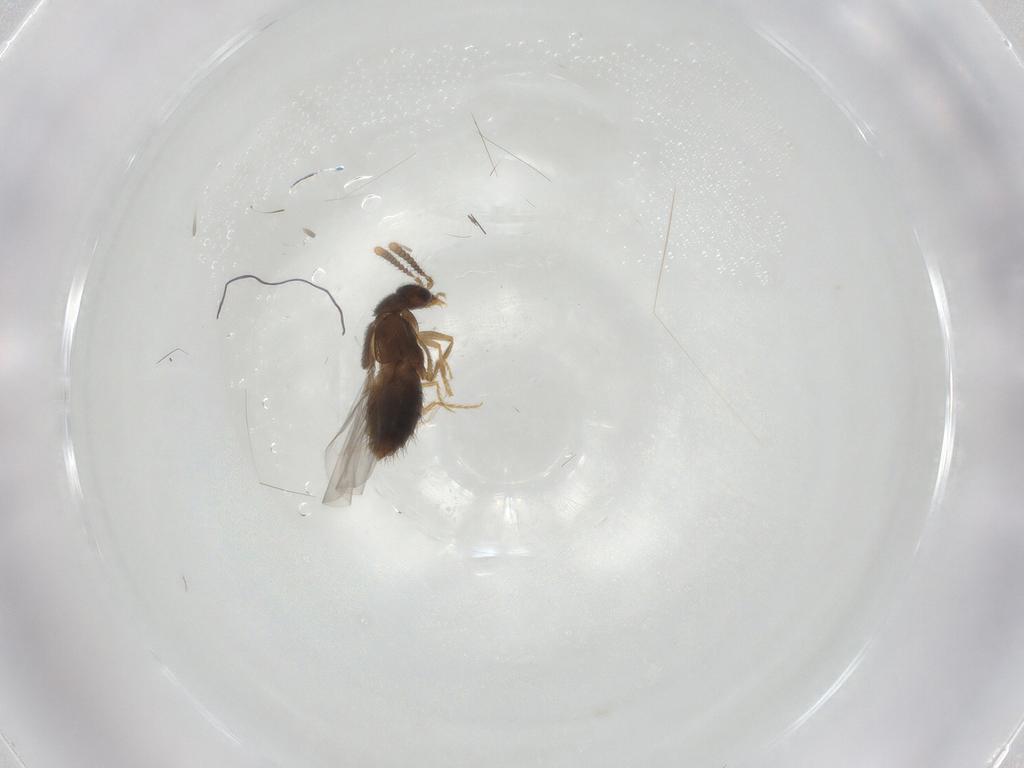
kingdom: Animalia
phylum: Arthropoda
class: Insecta
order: Coleoptera
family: Staphylinidae
